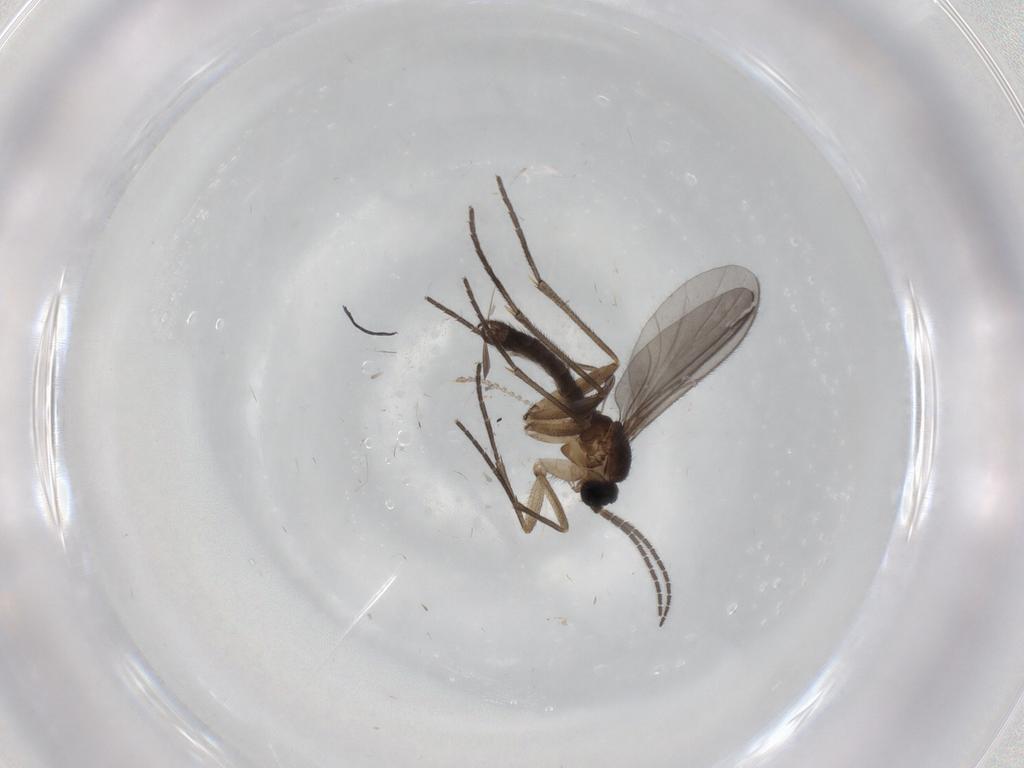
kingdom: Animalia
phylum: Arthropoda
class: Insecta
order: Diptera
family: Sciaridae
